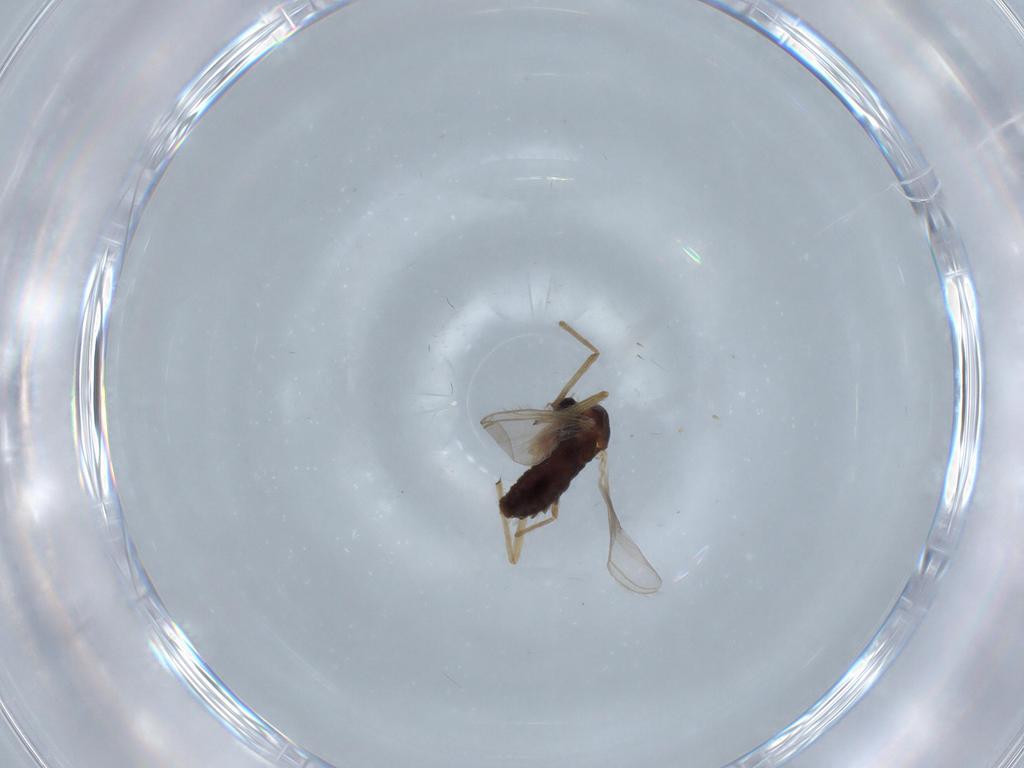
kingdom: Animalia
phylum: Arthropoda
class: Insecta
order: Diptera
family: Chironomidae
